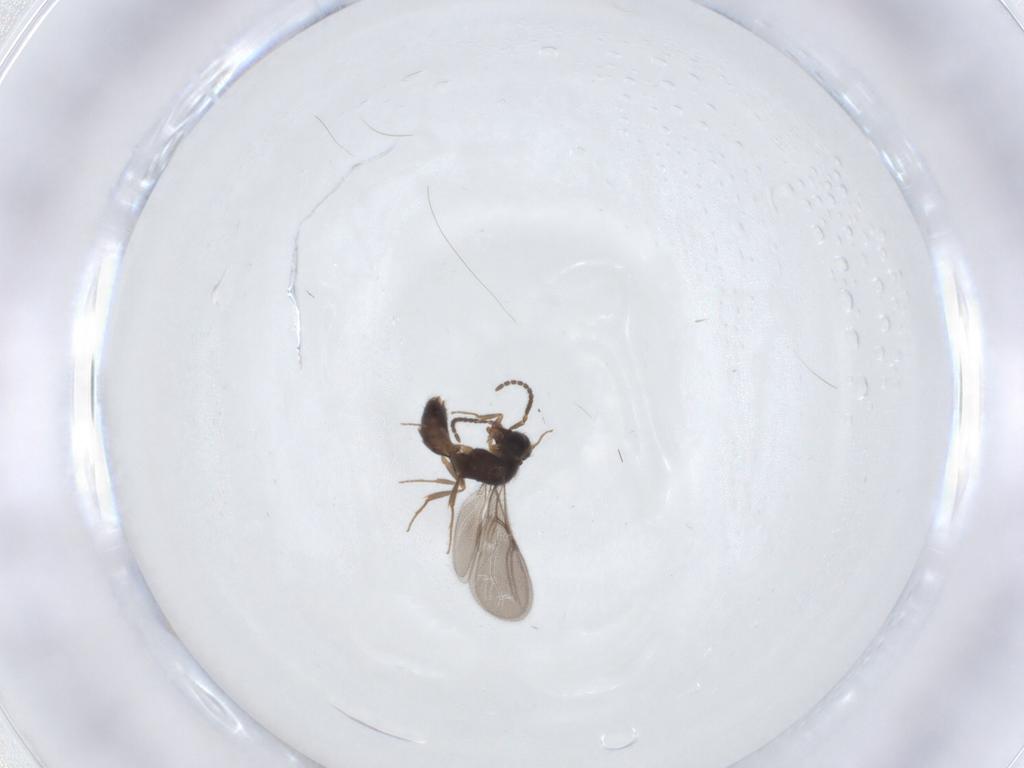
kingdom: Animalia
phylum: Arthropoda
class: Insecta
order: Hymenoptera
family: Bethylidae
